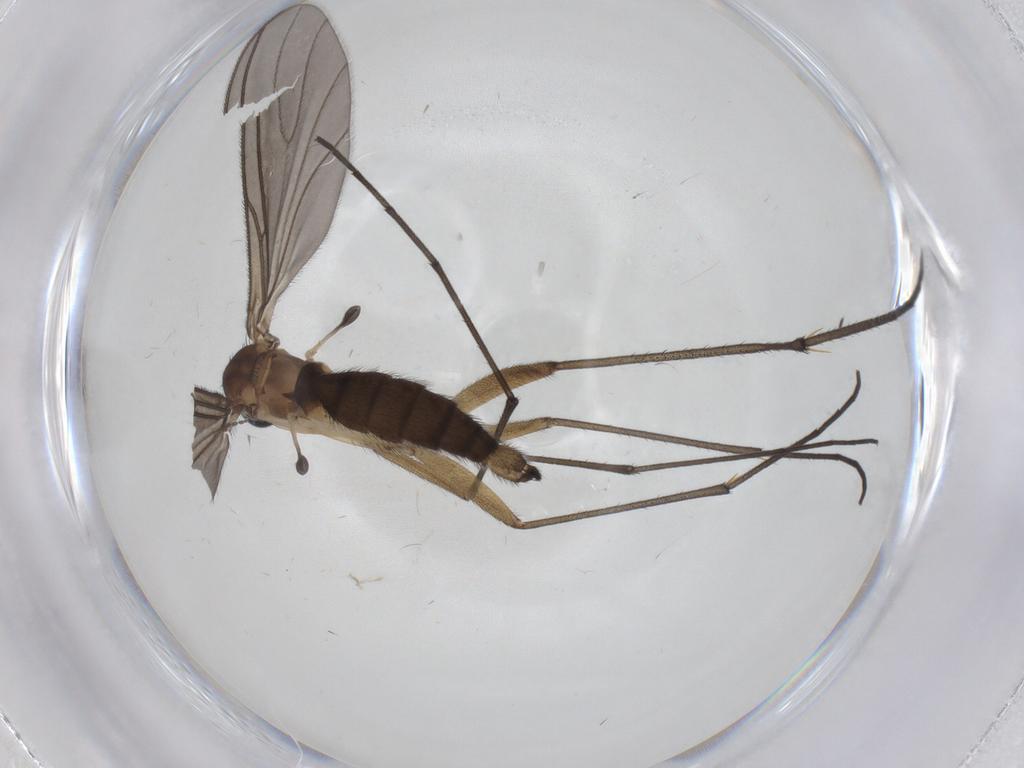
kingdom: Animalia
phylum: Arthropoda
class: Insecta
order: Diptera
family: Sciaridae
